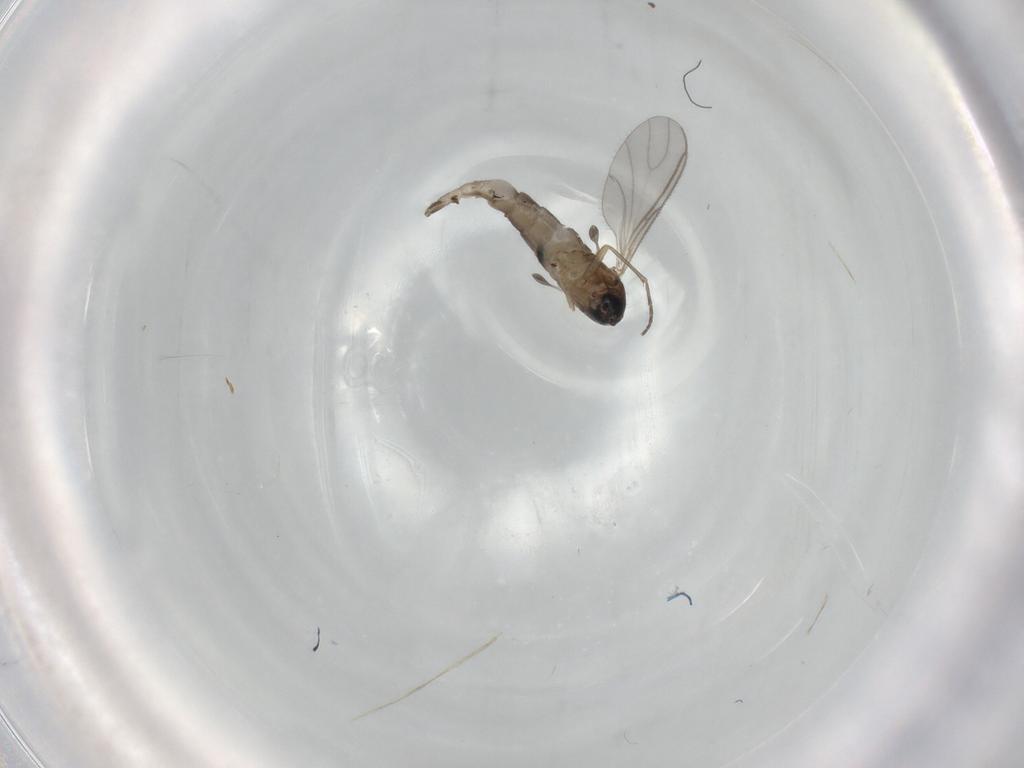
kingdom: Animalia
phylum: Arthropoda
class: Insecta
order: Diptera
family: Sciaridae
